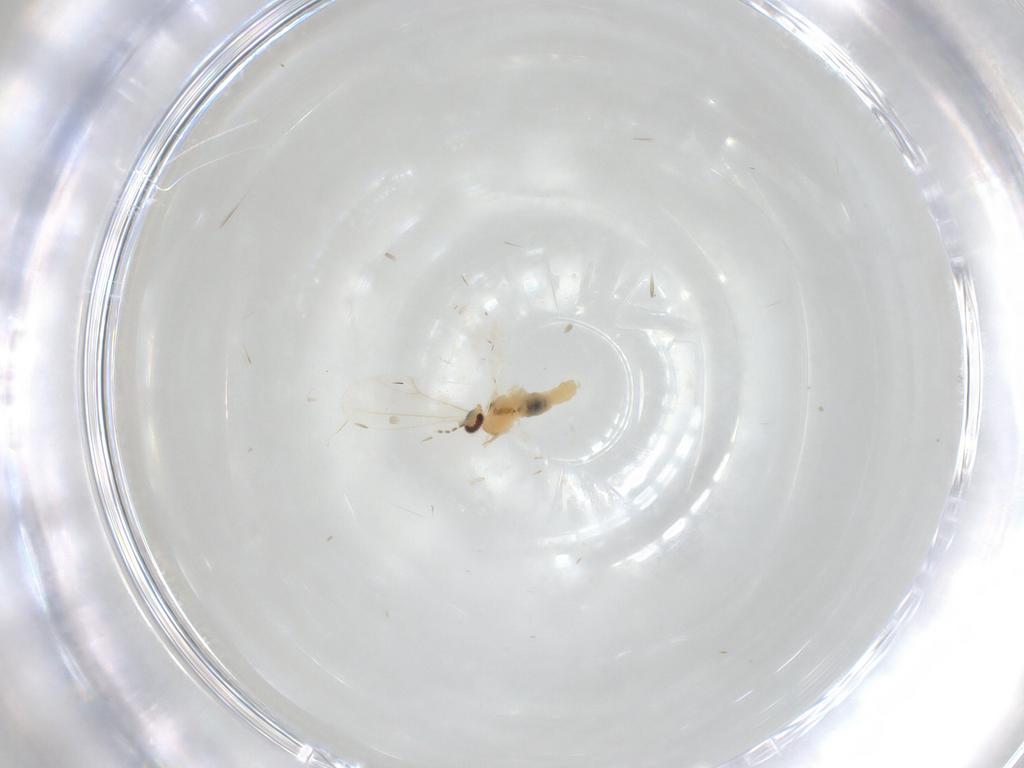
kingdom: Animalia
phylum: Arthropoda
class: Insecta
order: Diptera
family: Cecidomyiidae
